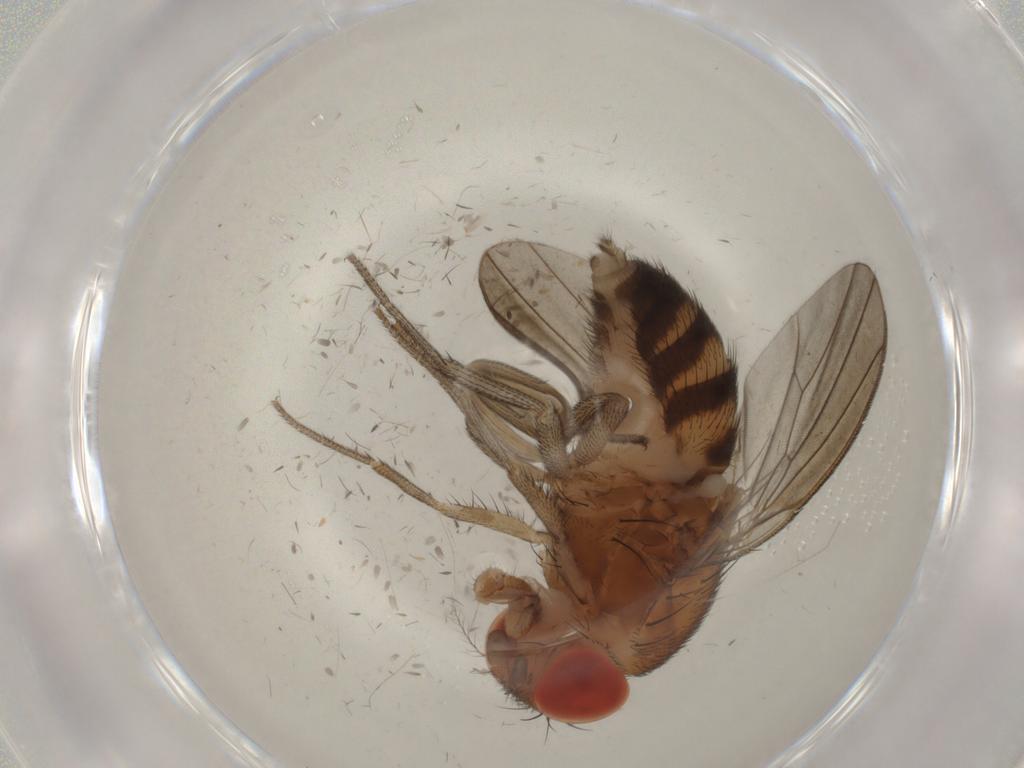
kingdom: Animalia
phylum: Arthropoda
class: Insecta
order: Diptera
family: Drosophilidae
